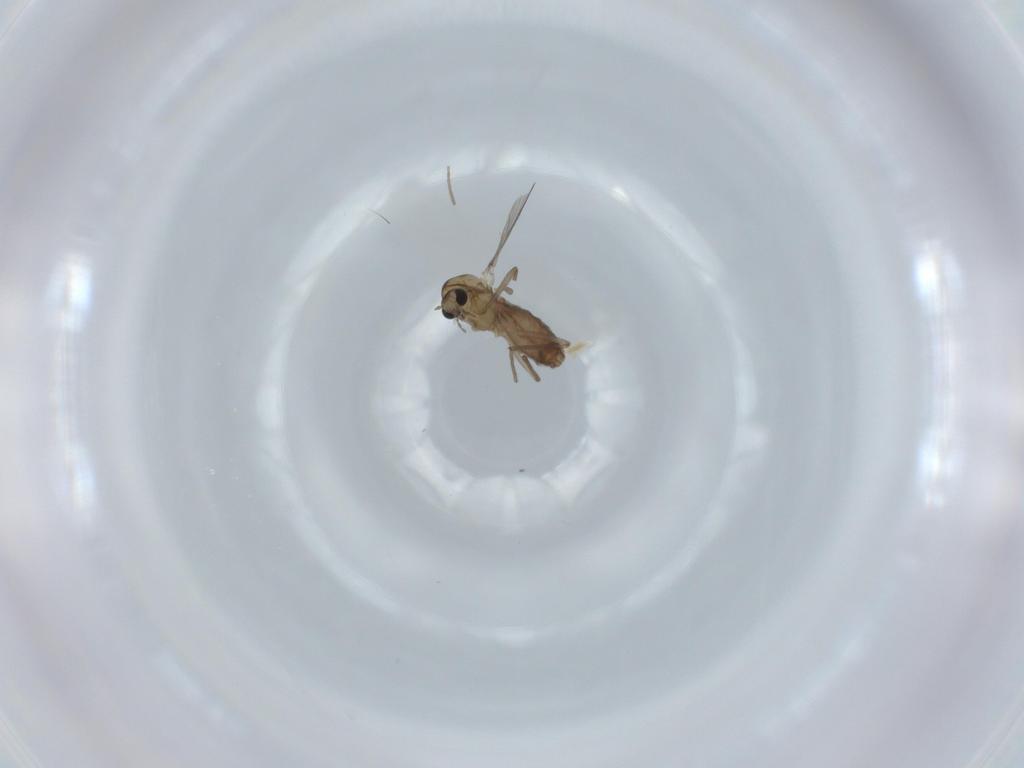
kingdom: Animalia
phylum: Arthropoda
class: Insecta
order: Diptera
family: Chironomidae
